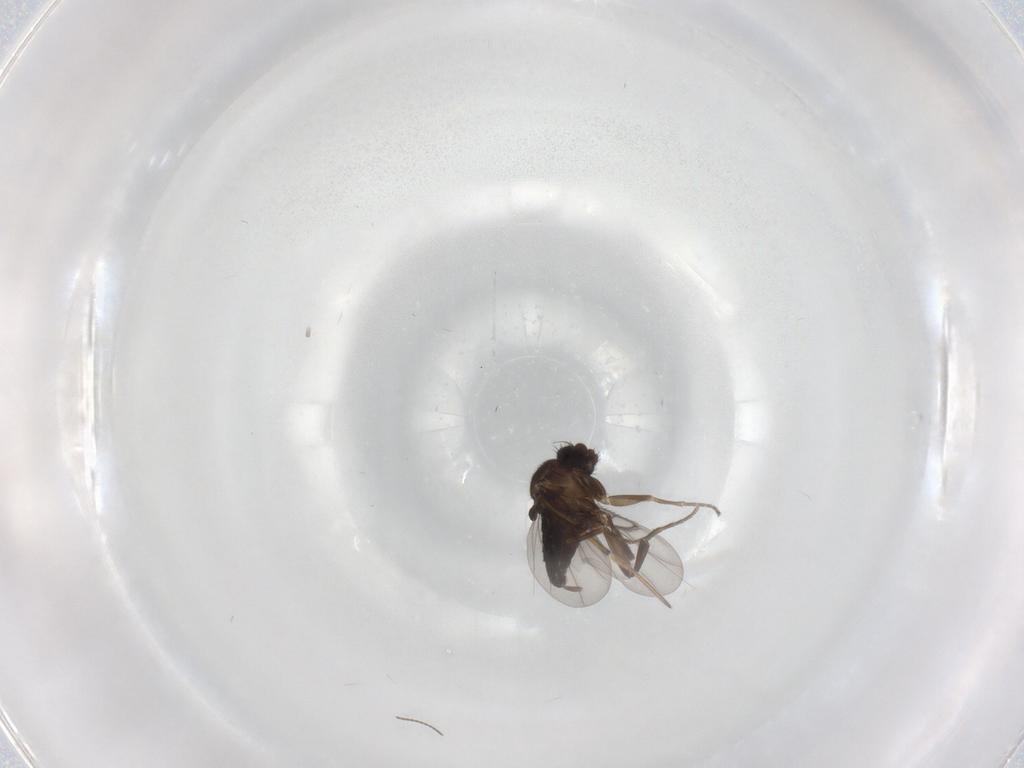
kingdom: Animalia
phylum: Arthropoda
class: Insecta
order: Diptera
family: Phoridae
